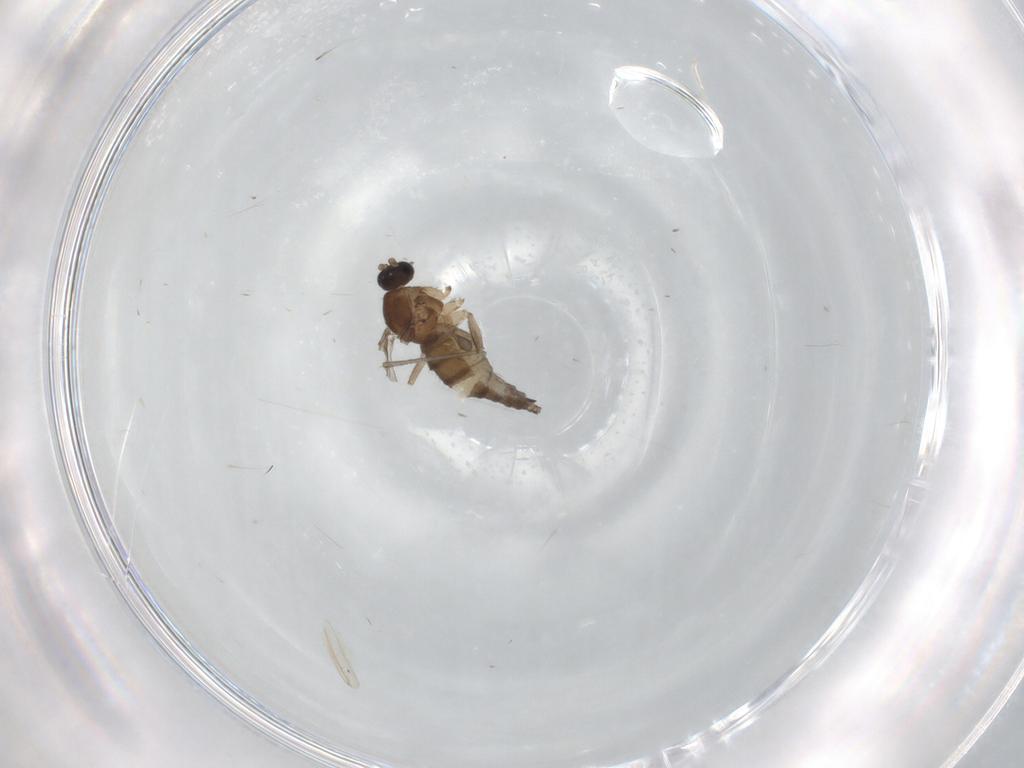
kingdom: Animalia
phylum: Arthropoda
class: Insecta
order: Diptera
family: Sciaridae
